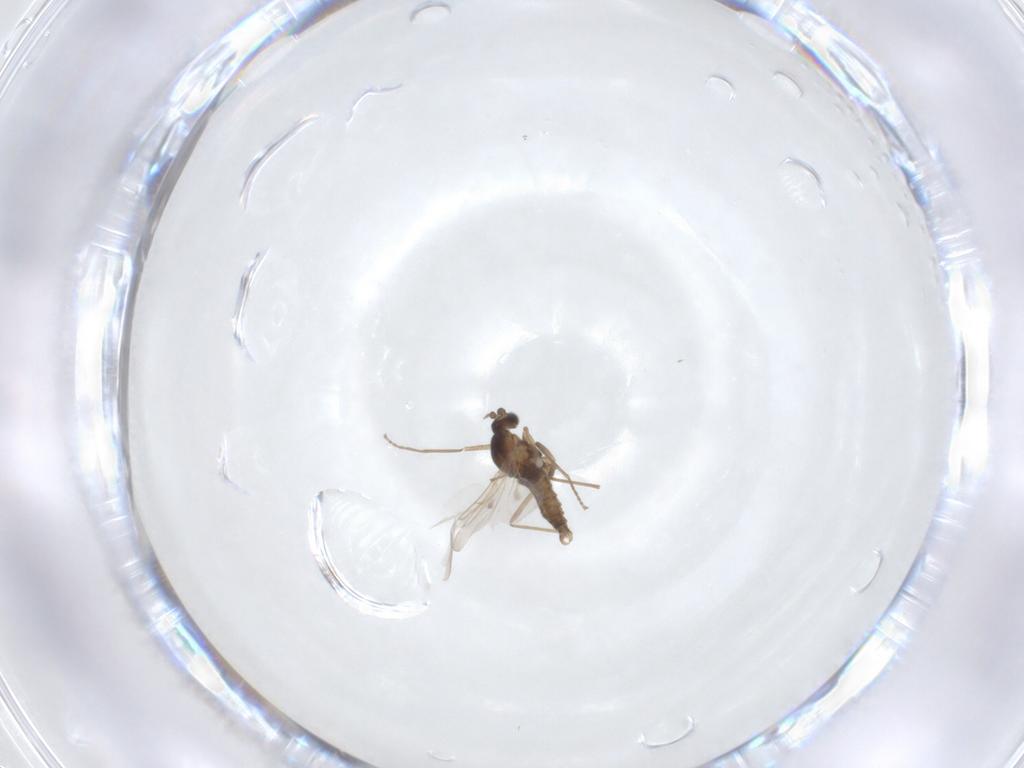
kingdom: Animalia
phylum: Arthropoda
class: Insecta
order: Diptera
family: Cecidomyiidae
